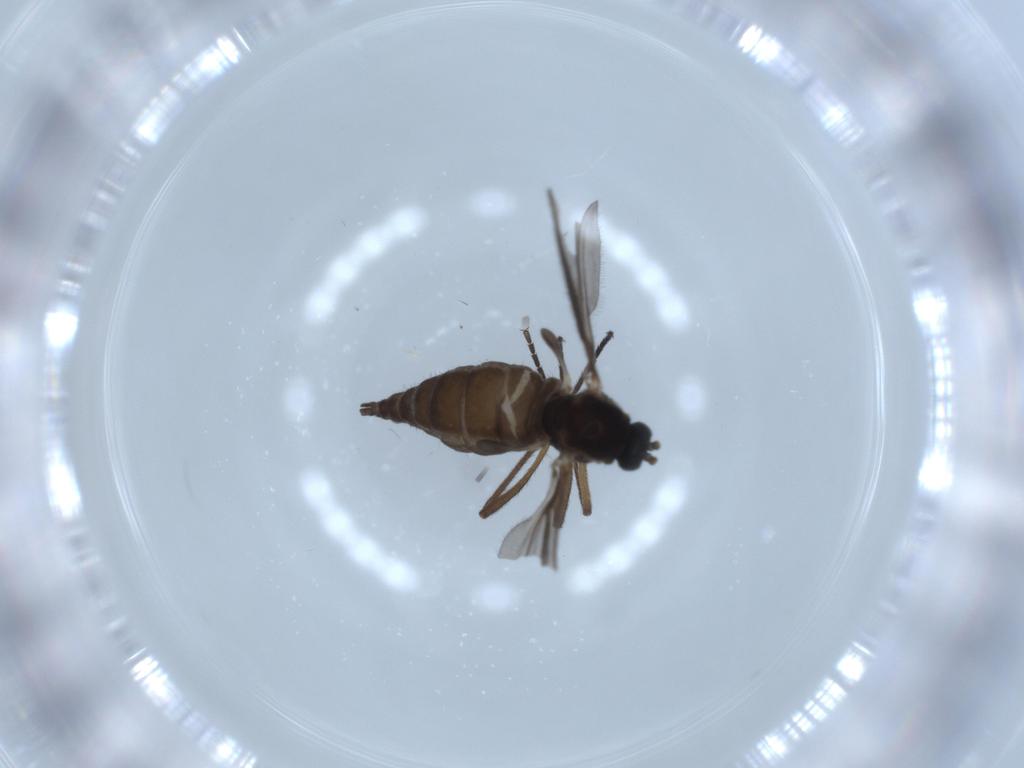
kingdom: Animalia
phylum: Arthropoda
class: Insecta
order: Diptera
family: Sciaridae
